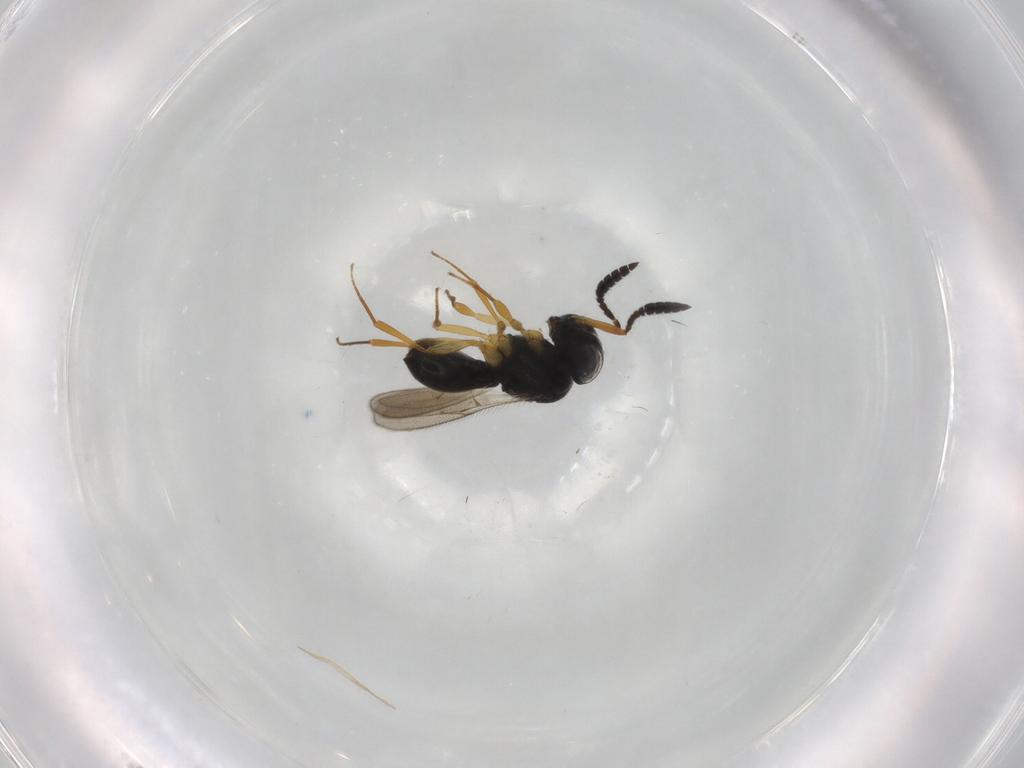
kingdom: Animalia
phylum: Arthropoda
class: Insecta
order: Hymenoptera
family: Scelionidae
